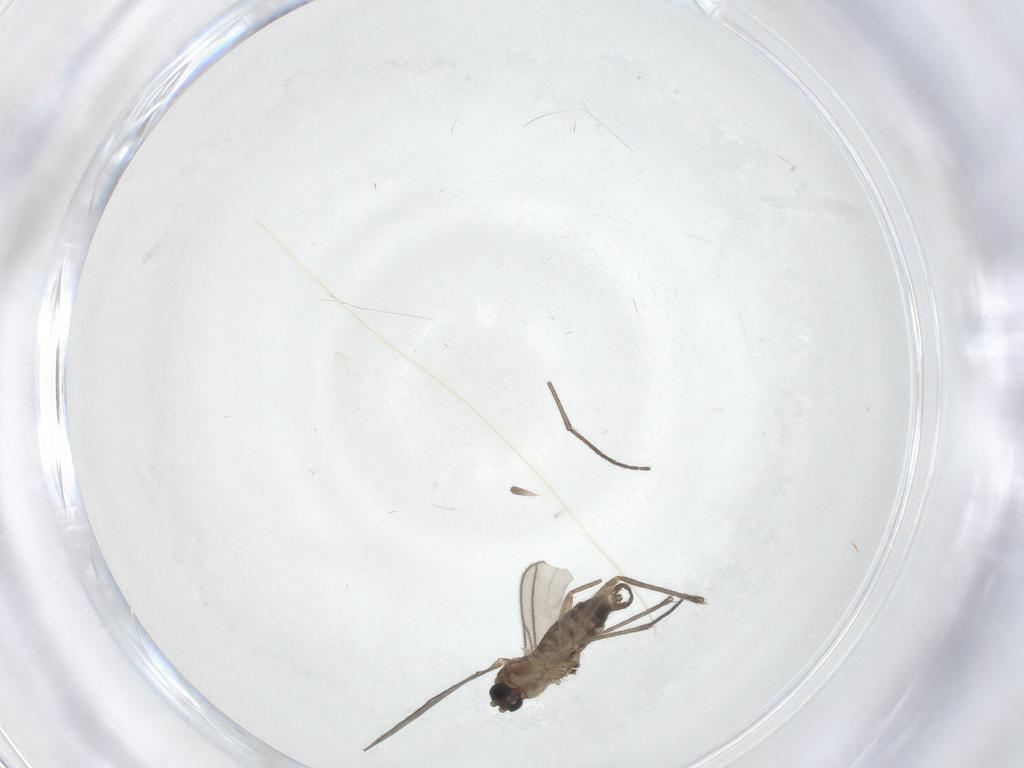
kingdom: Animalia
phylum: Arthropoda
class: Insecta
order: Diptera
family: Sciaridae
